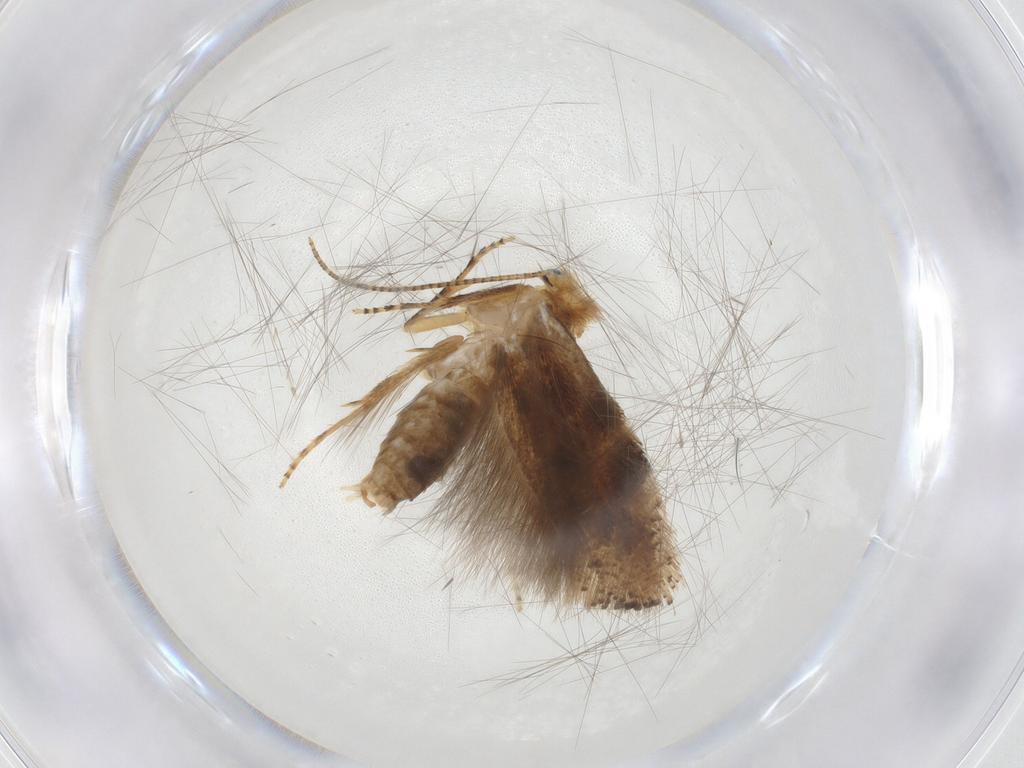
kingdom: Animalia
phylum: Arthropoda
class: Insecta
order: Lepidoptera
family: Bucculatricidae
